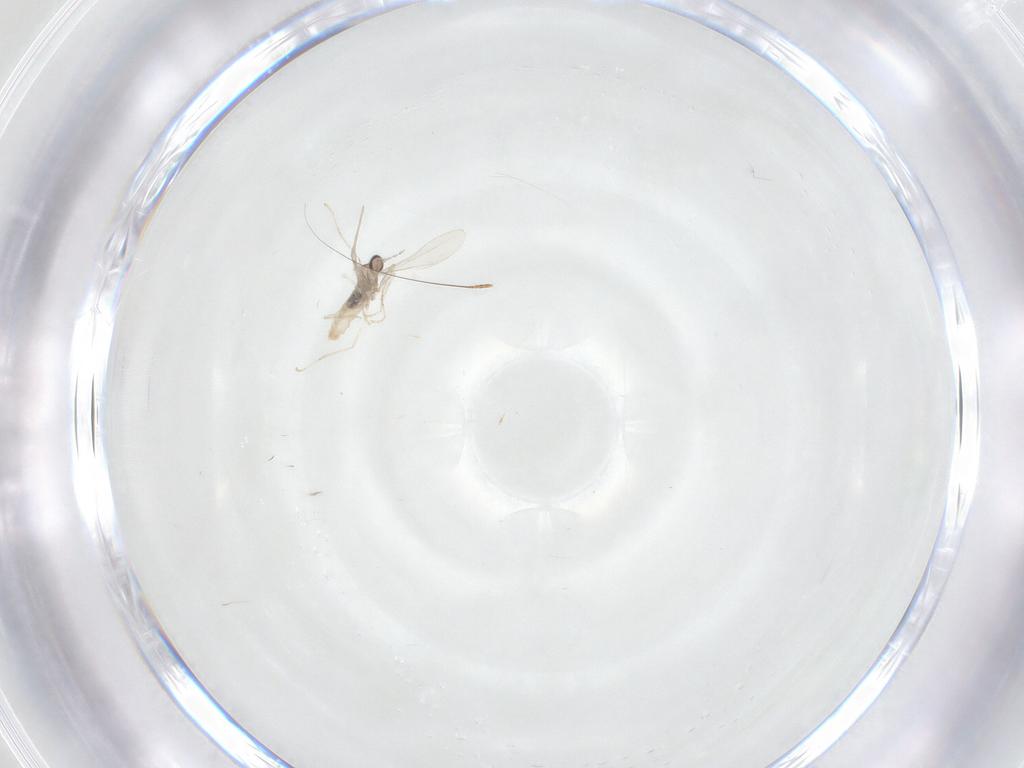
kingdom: Animalia
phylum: Arthropoda
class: Insecta
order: Diptera
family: Cecidomyiidae
